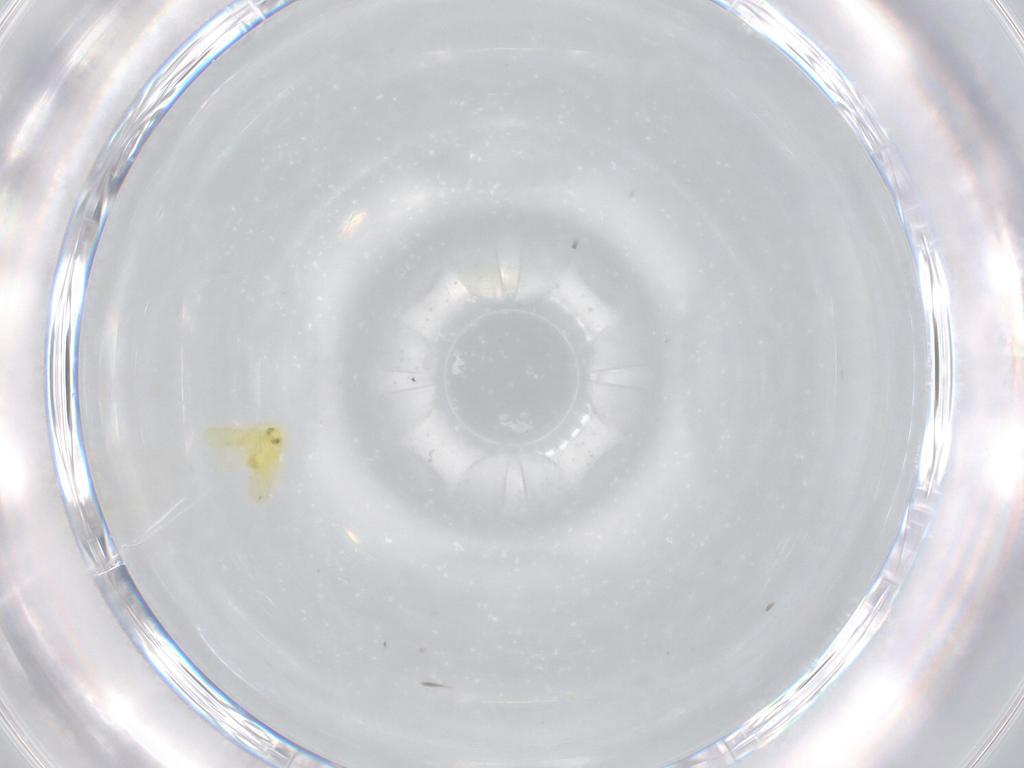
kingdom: Animalia
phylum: Arthropoda
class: Insecta
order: Hemiptera
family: Aleyrodidae
